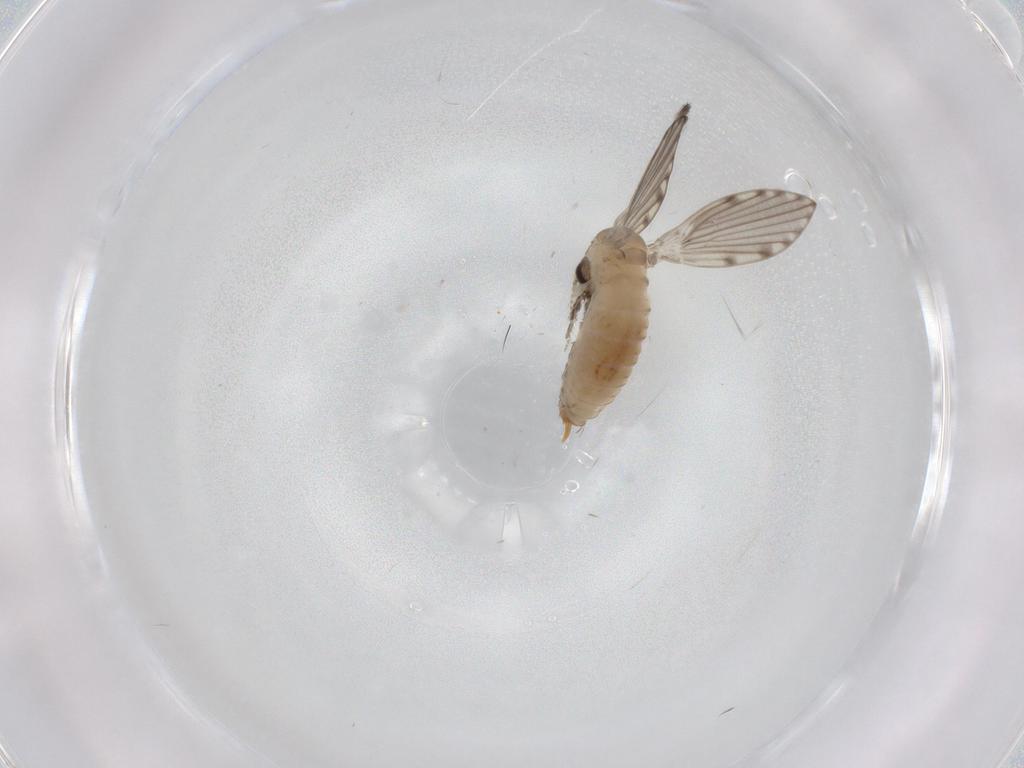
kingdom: Animalia
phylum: Arthropoda
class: Insecta
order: Diptera
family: Psychodidae
